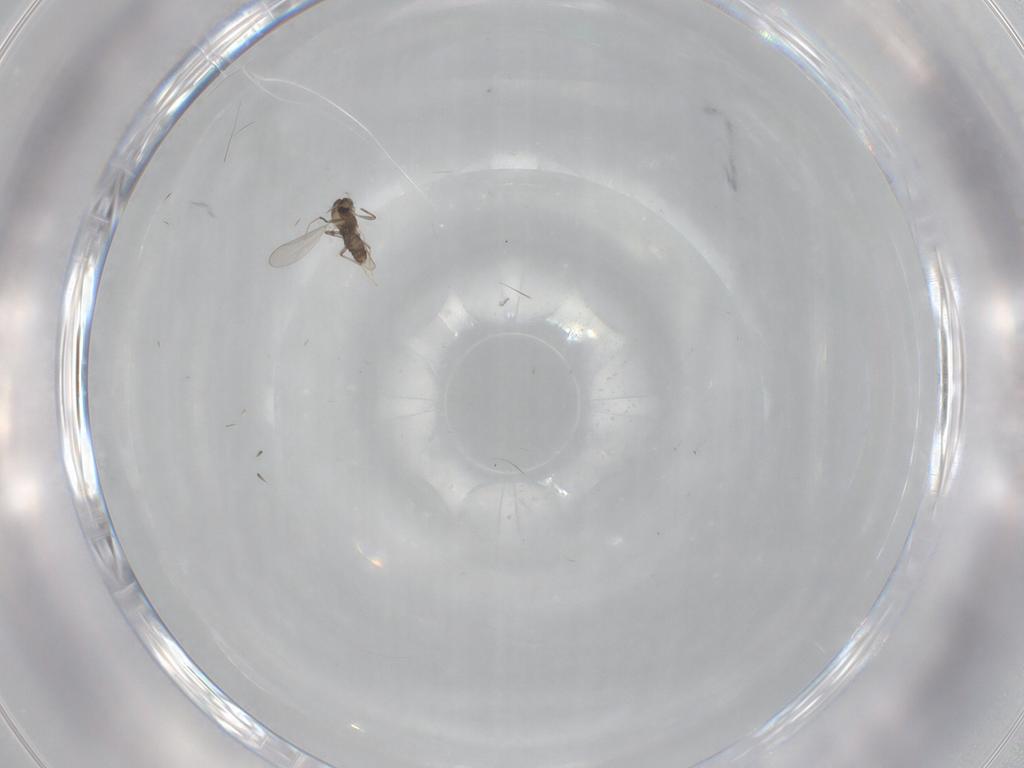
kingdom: Animalia
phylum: Arthropoda
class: Insecta
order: Diptera
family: Chironomidae
